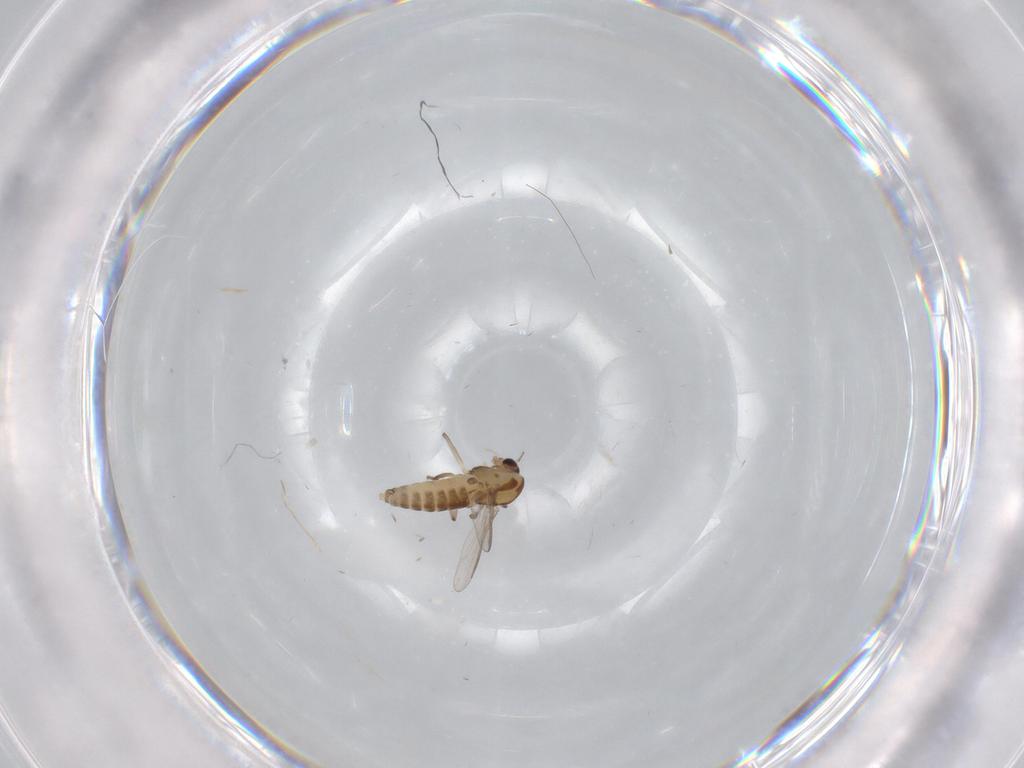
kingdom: Animalia
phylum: Arthropoda
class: Insecta
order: Diptera
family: Chironomidae
